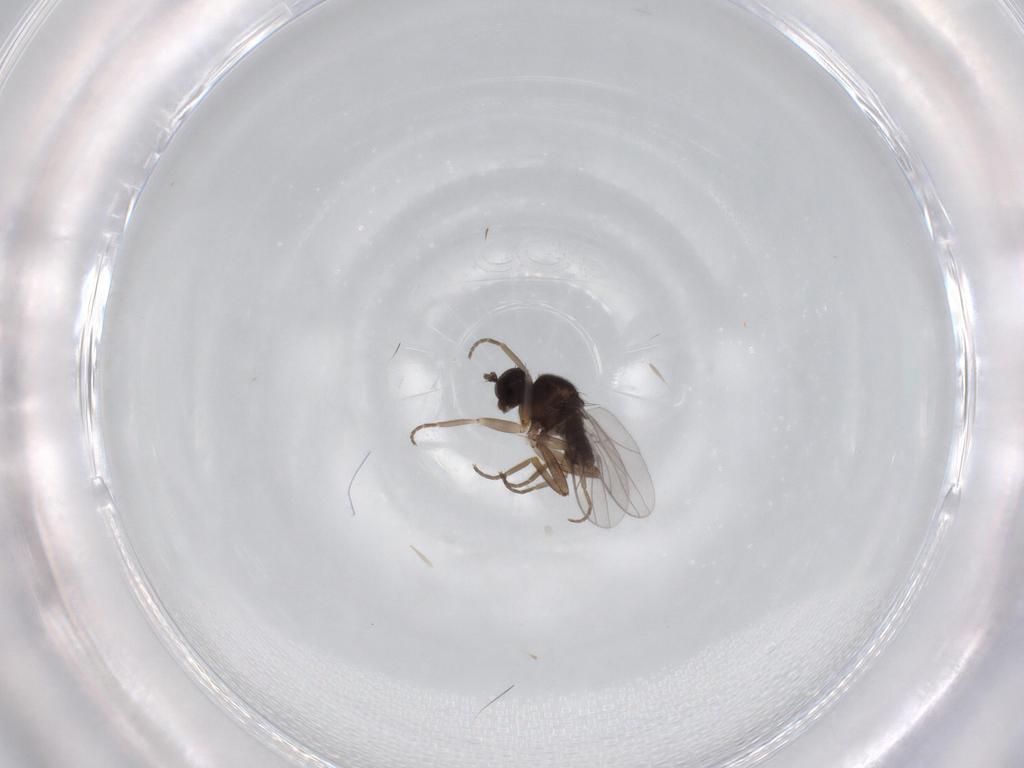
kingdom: Animalia
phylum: Arthropoda
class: Insecta
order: Diptera
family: Hybotidae
